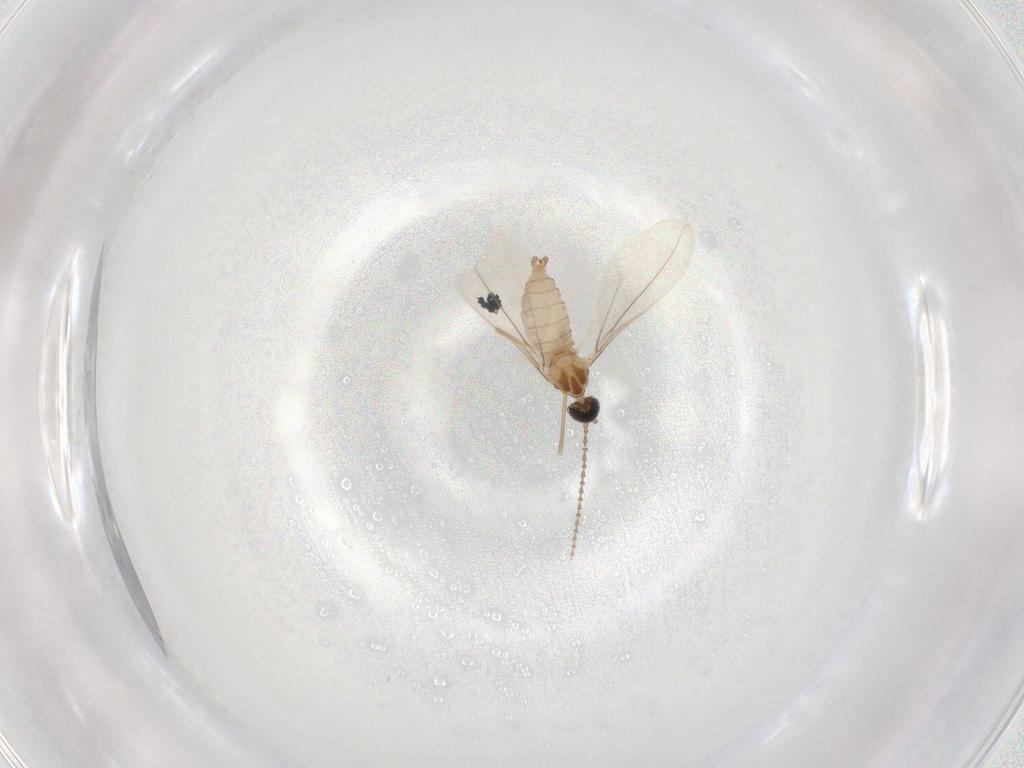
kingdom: Animalia
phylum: Arthropoda
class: Insecta
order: Diptera
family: Cecidomyiidae
